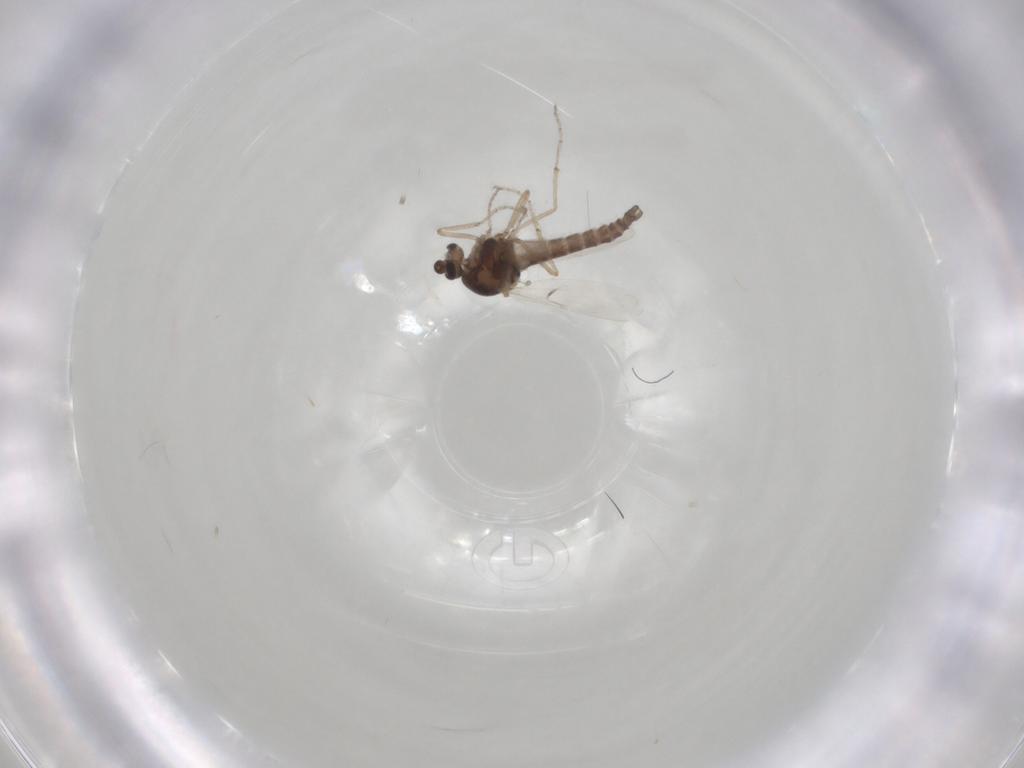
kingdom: Animalia
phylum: Arthropoda
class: Insecta
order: Diptera
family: Ceratopogonidae
